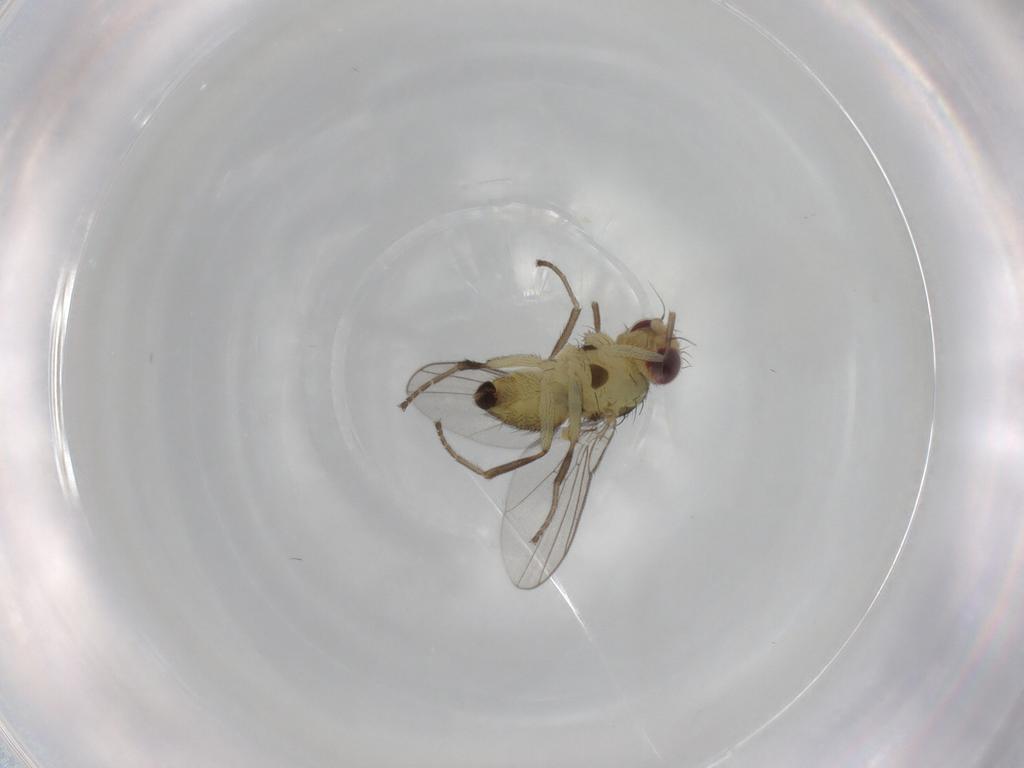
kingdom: Animalia
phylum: Arthropoda
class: Insecta
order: Diptera
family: Agromyzidae
